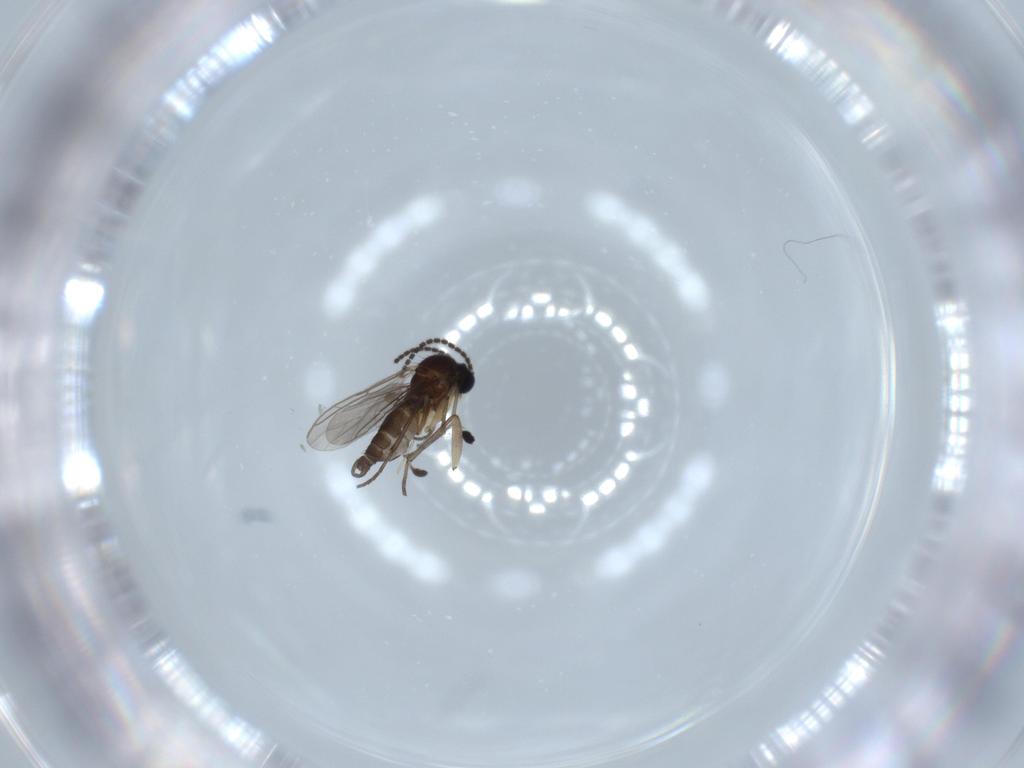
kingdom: Animalia
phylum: Arthropoda
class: Insecta
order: Diptera
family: Sciaridae
